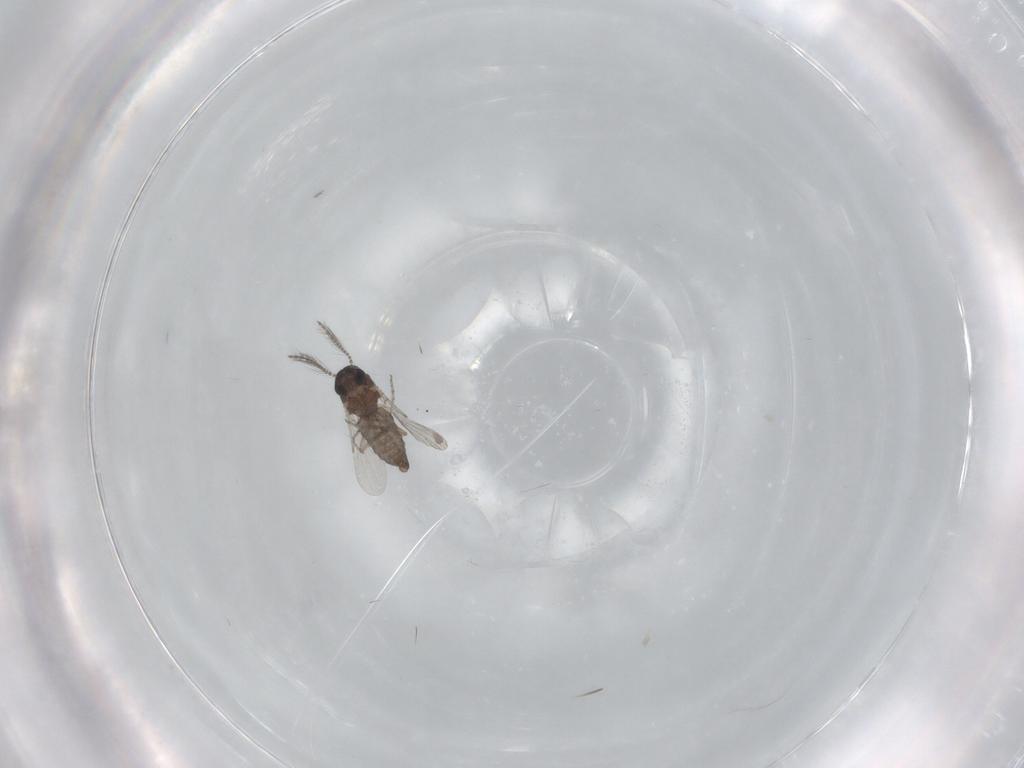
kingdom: Animalia
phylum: Arthropoda
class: Insecta
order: Diptera
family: Ceratopogonidae
